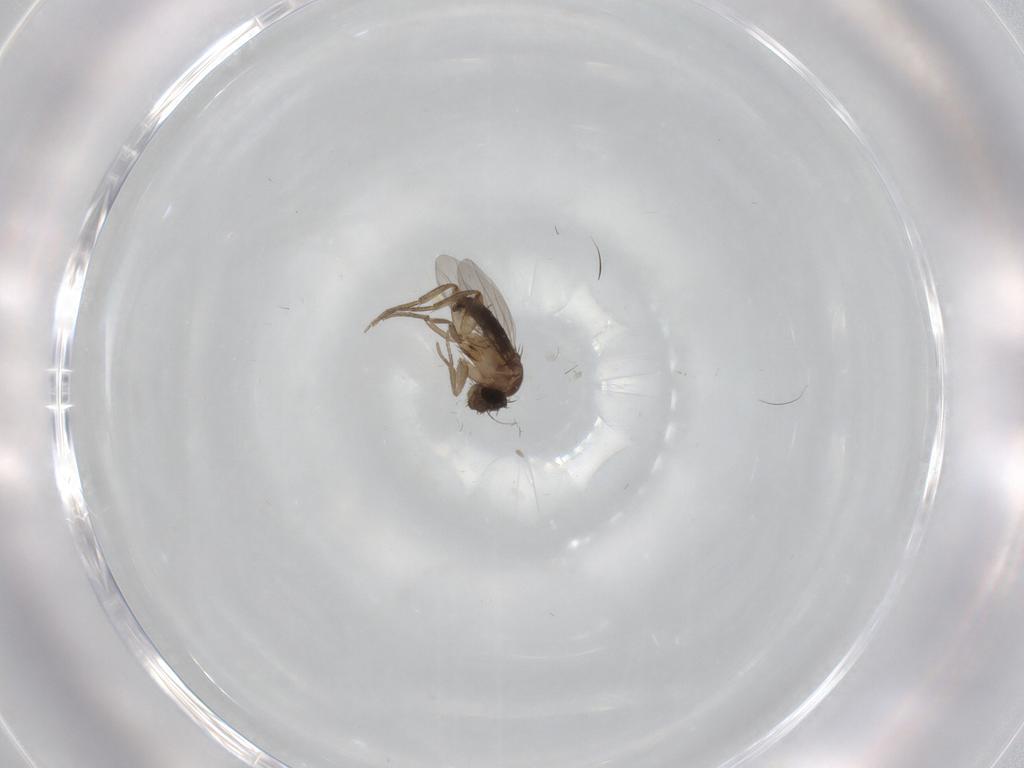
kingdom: Animalia
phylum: Arthropoda
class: Insecta
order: Diptera
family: Phoridae
